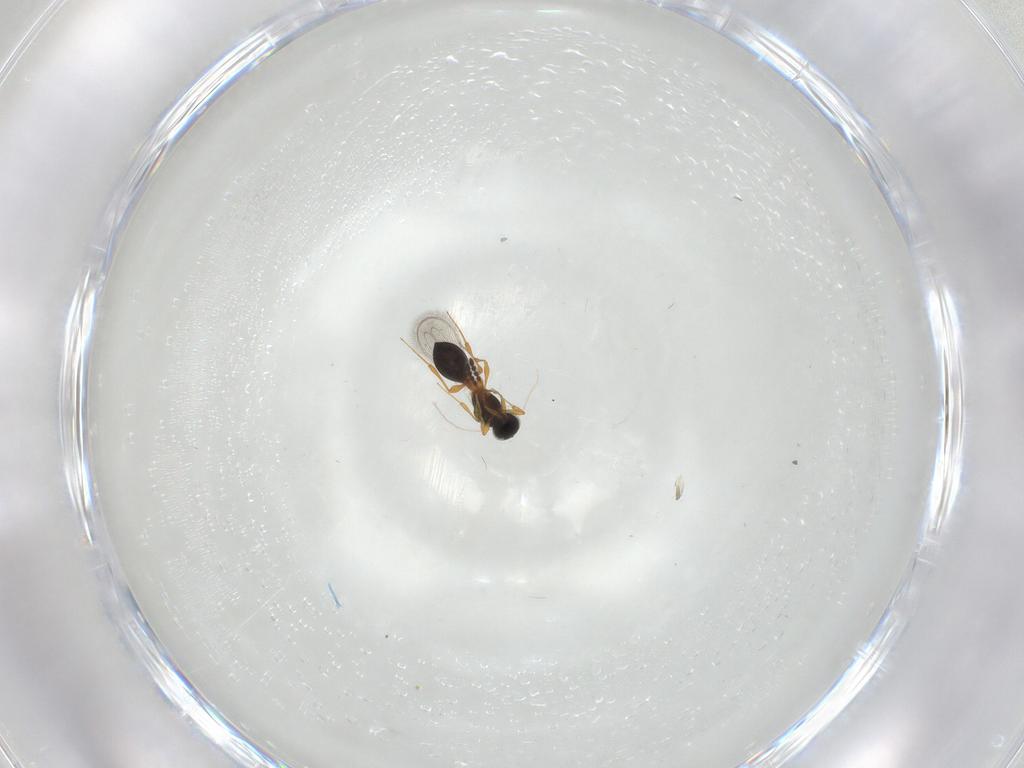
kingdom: Animalia
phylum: Arthropoda
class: Insecta
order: Hymenoptera
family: Platygastridae
